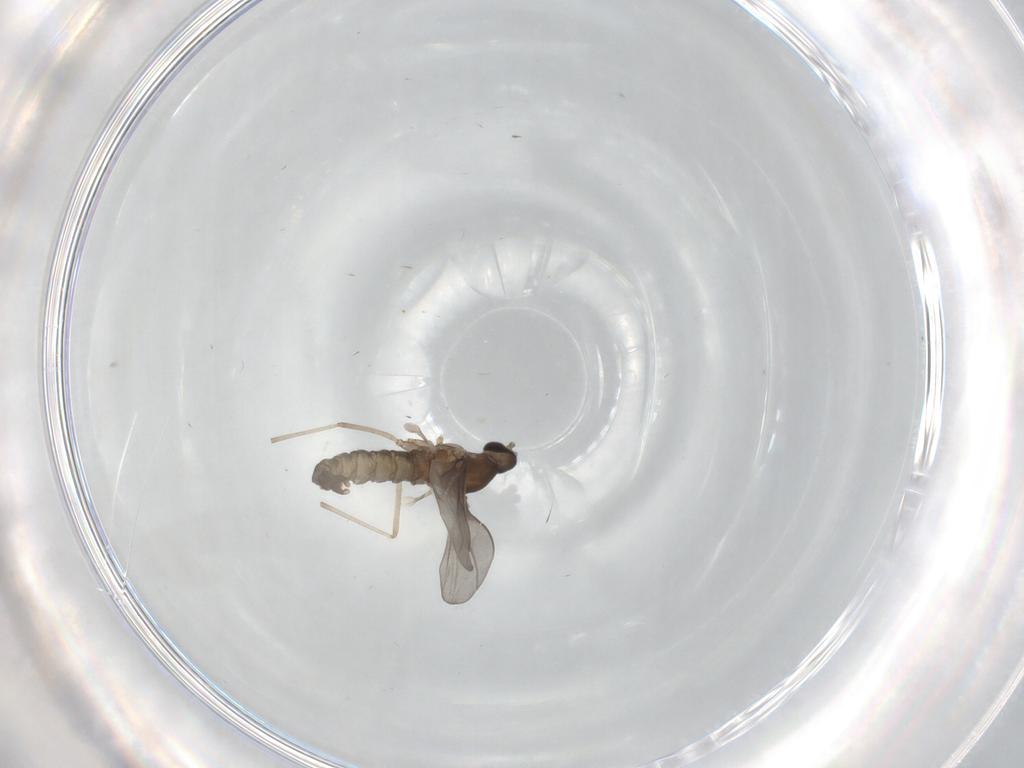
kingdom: Animalia
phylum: Arthropoda
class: Insecta
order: Diptera
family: Cecidomyiidae
